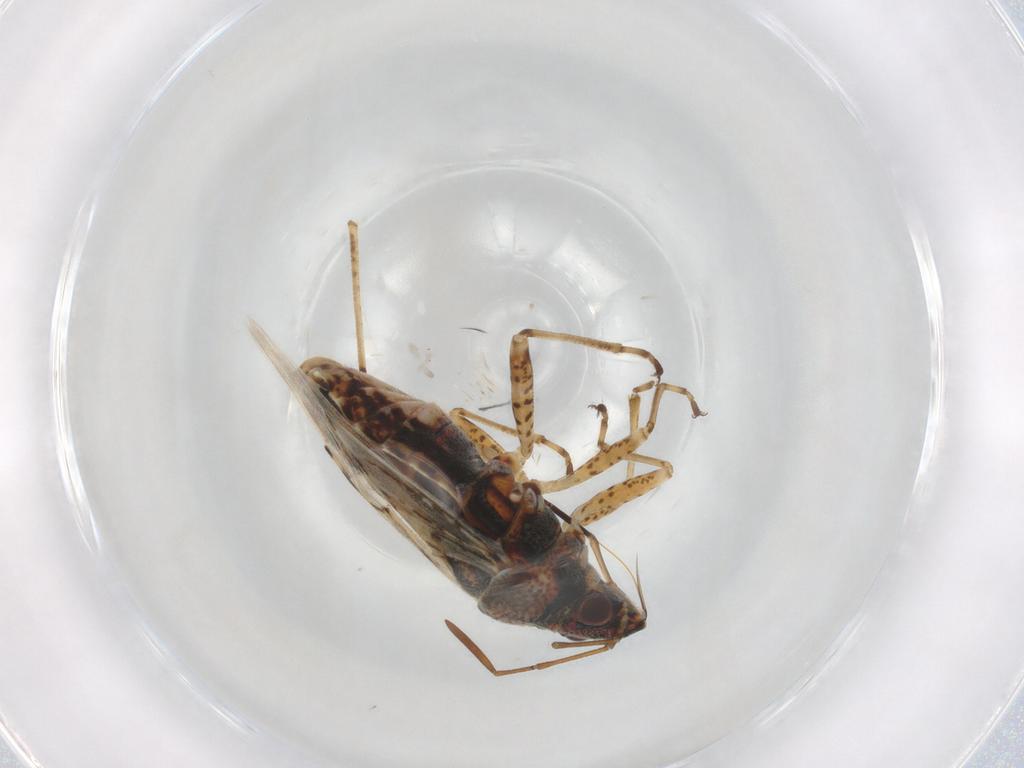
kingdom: Animalia
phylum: Arthropoda
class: Insecta
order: Hemiptera
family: Lygaeidae
